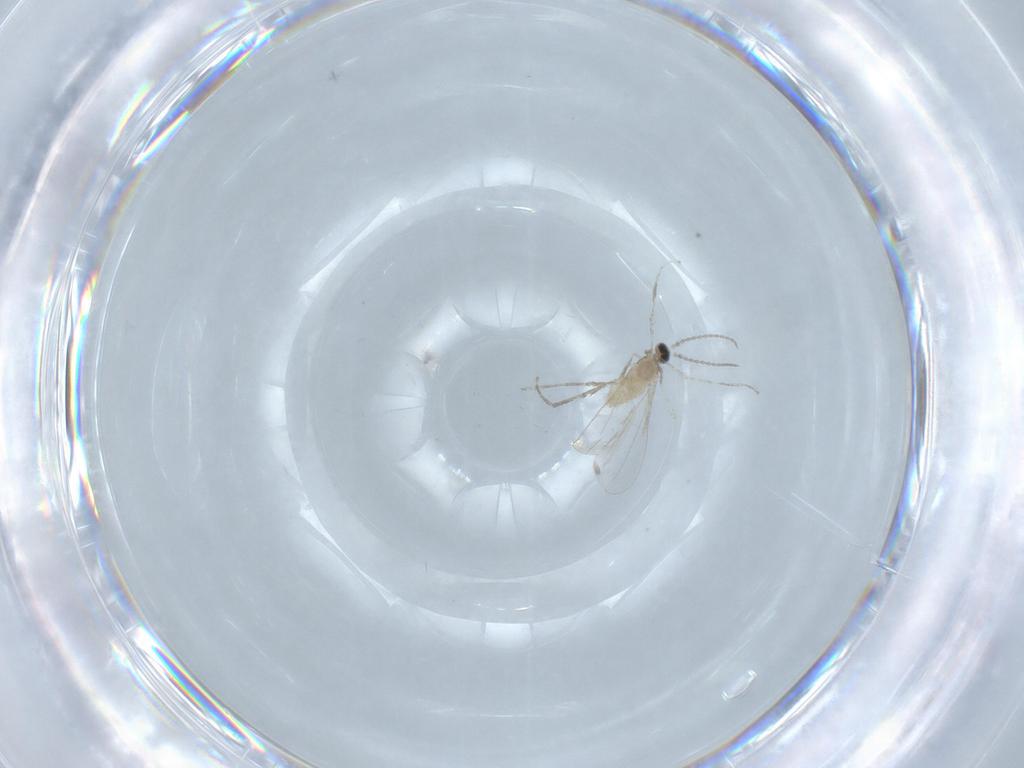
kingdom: Animalia
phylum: Arthropoda
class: Insecta
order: Diptera
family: Cecidomyiidae
